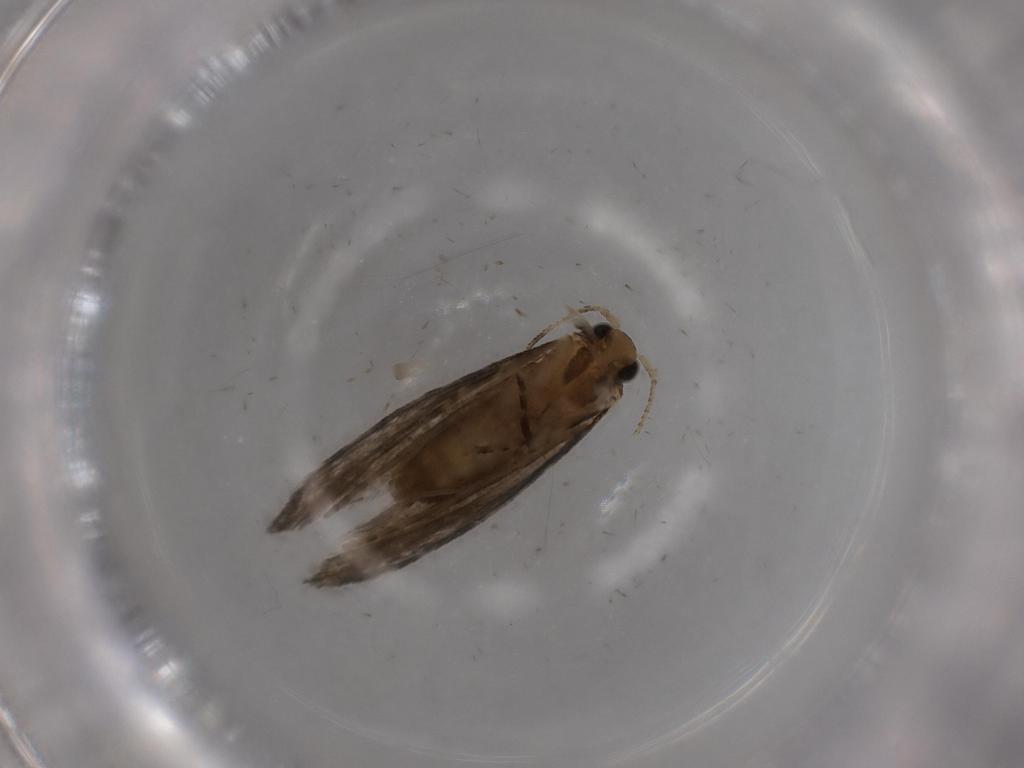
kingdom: Animalia
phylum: Arthropoda
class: Insecta
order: Lepidoptera
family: Tineidae
